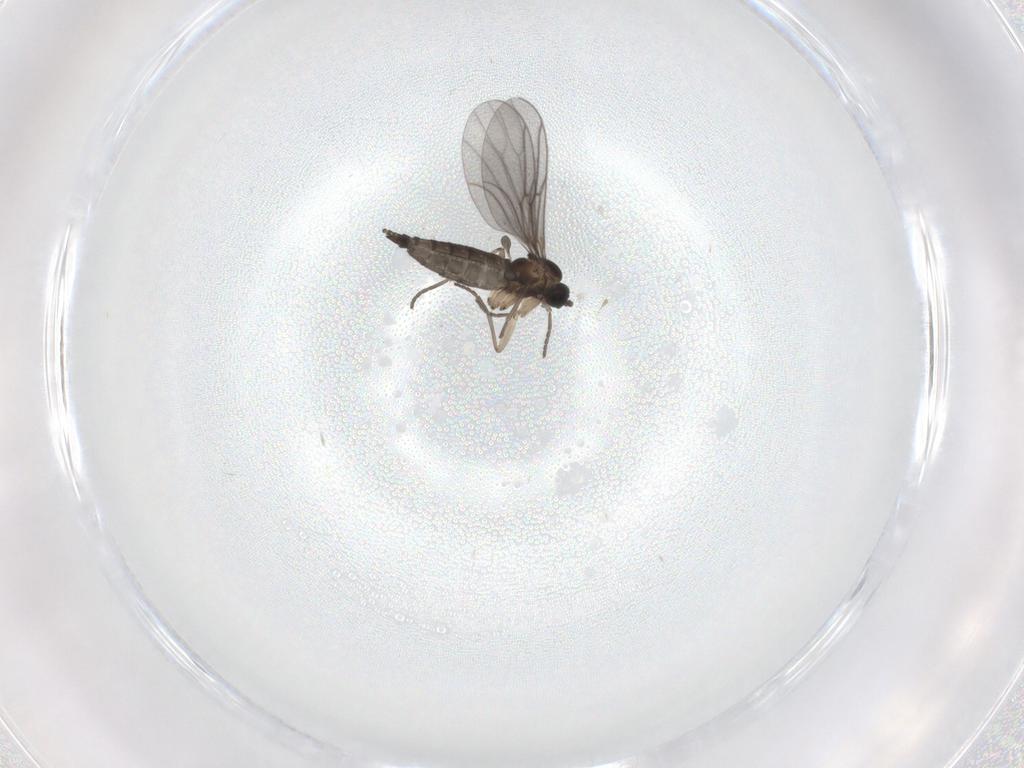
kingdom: Animalia
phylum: Arthropoda
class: Insecta
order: Diptera
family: Sciaridae
